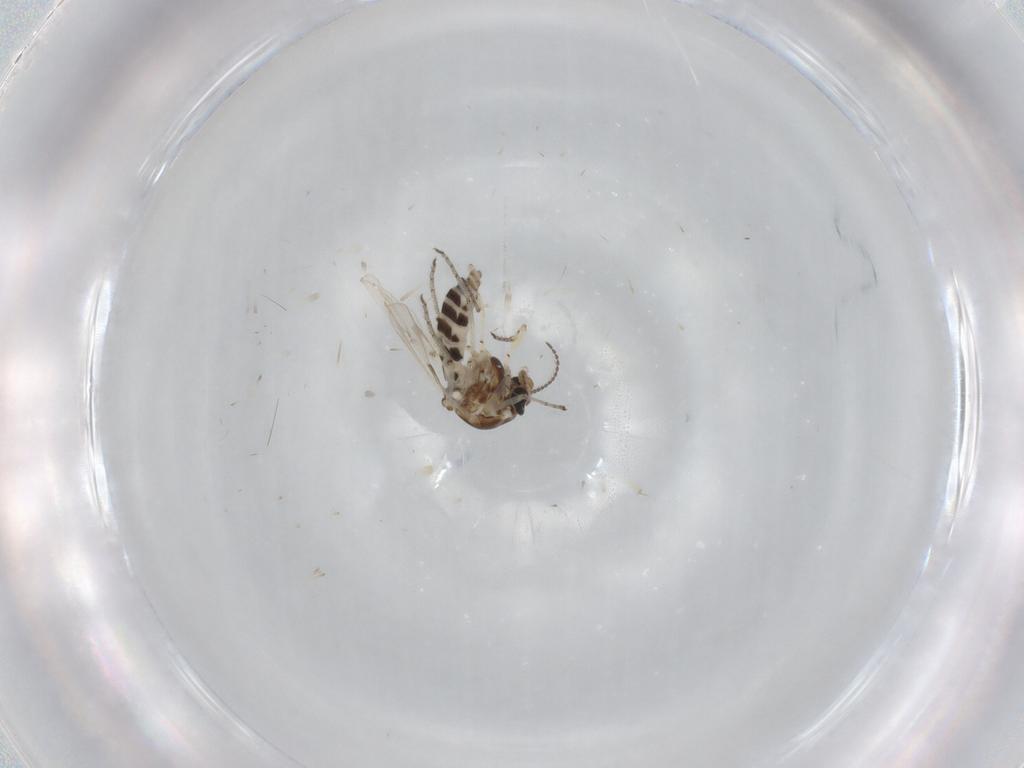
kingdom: Animalia
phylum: Arthropoda
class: Insecta
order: Diptera
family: Ceratopogonidae
